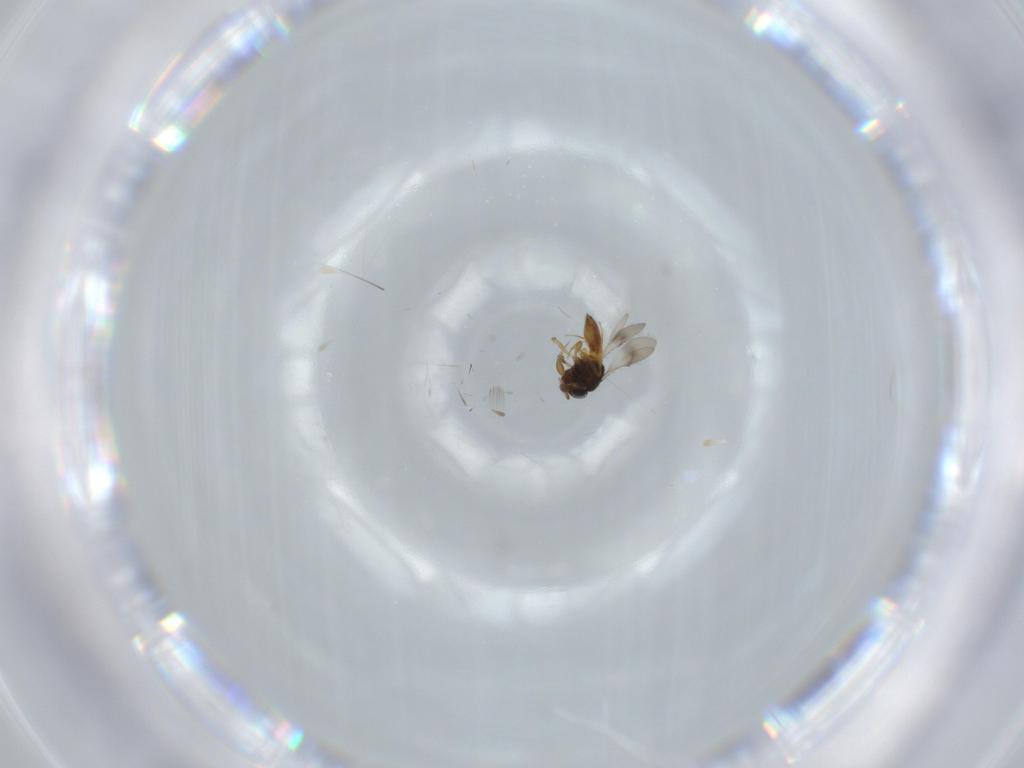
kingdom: Animalia
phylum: Arthropoda
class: Insecta
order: Hymenoptera
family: Scelionidae
